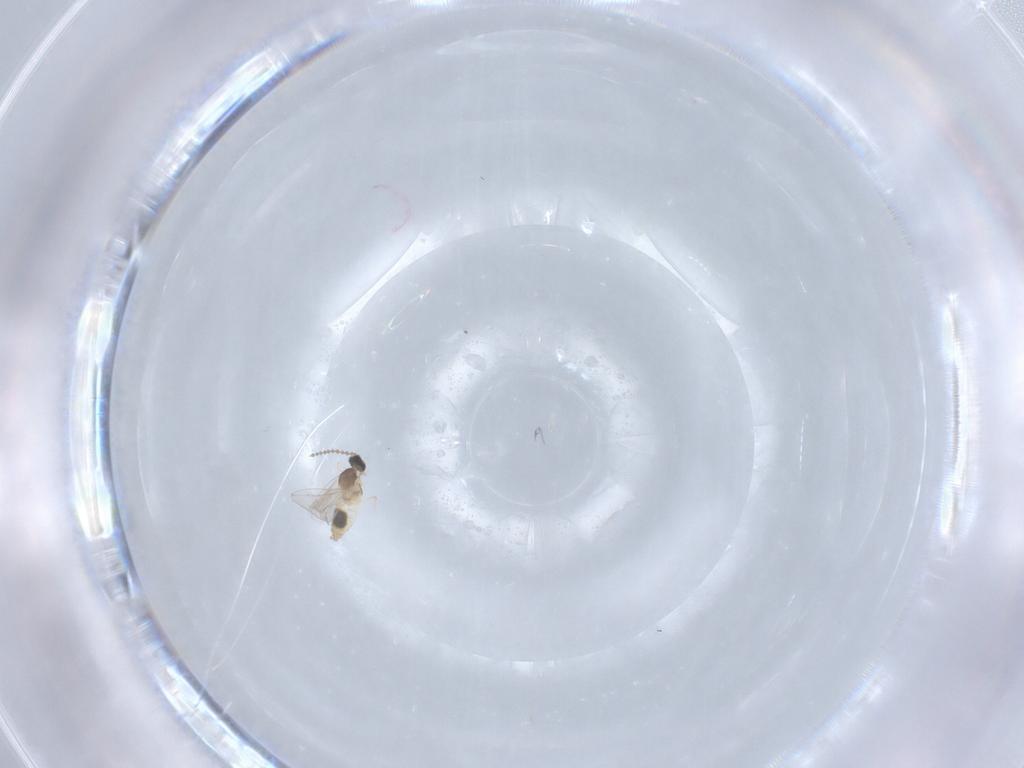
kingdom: Animalia
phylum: Arthropoda
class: Insecta
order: Diptera
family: Cecidomyiidae
